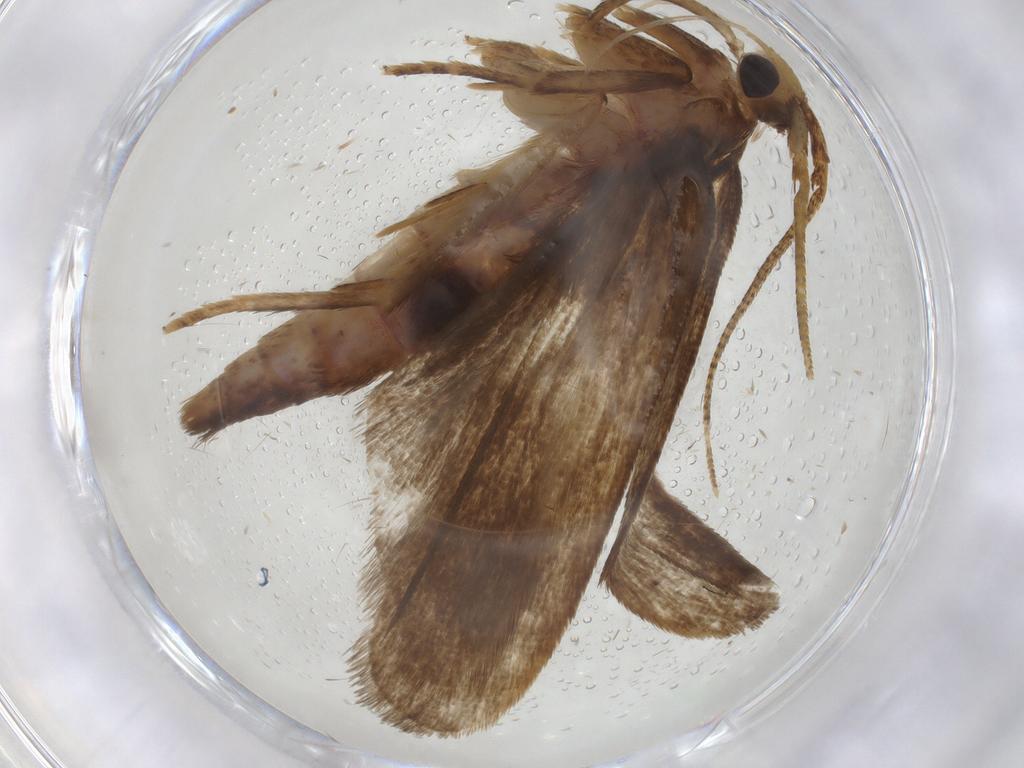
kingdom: Animalia
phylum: Arthropoda
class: Insecta
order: Lepidoptera
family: Autostichidae
